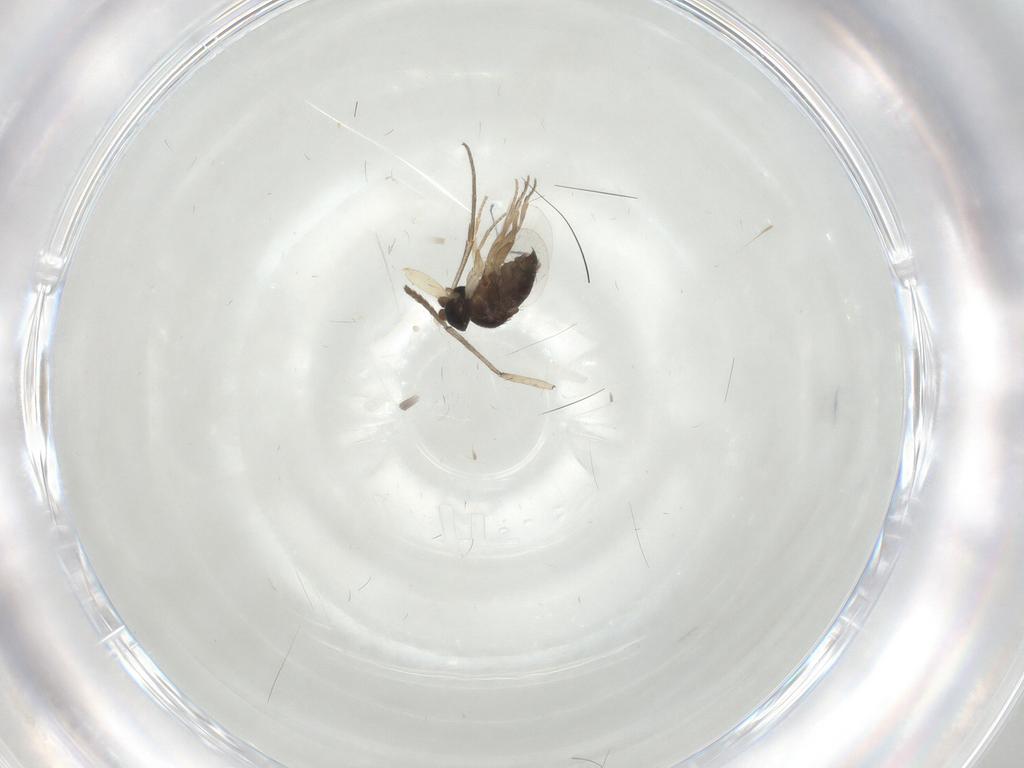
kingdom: Animalia
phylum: Arthropoda
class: Insecta
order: Diptera
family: Phoridae
